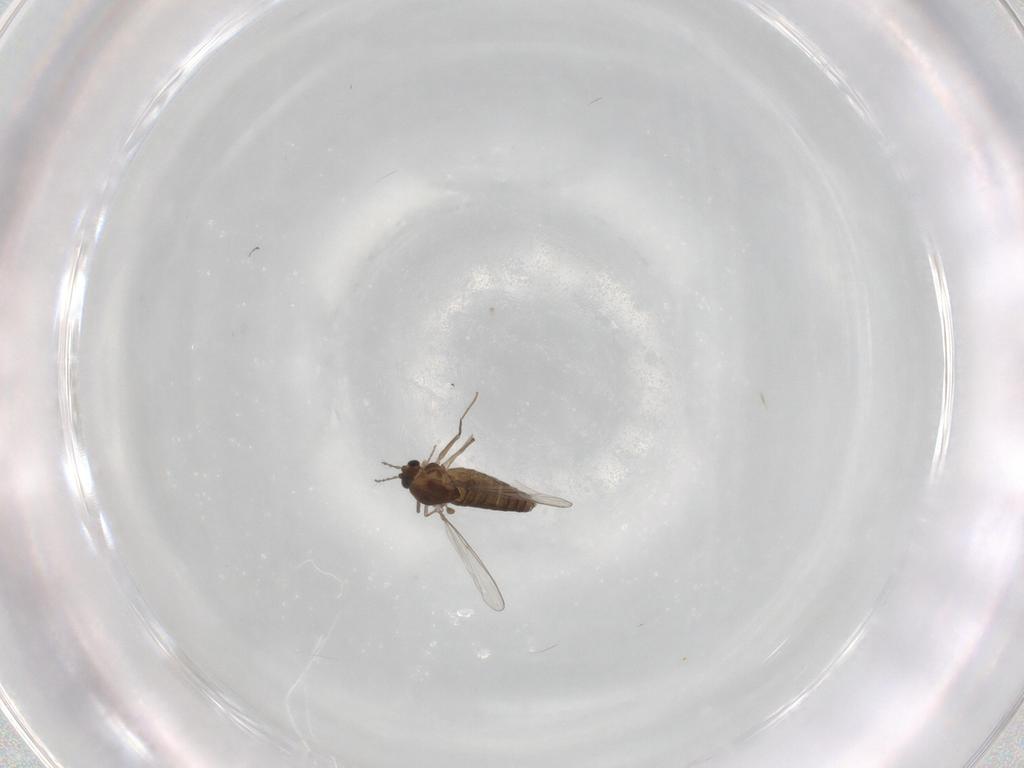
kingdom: Animalia
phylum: Arthropoda
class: Insecta
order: Diptera
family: Chironomidae
